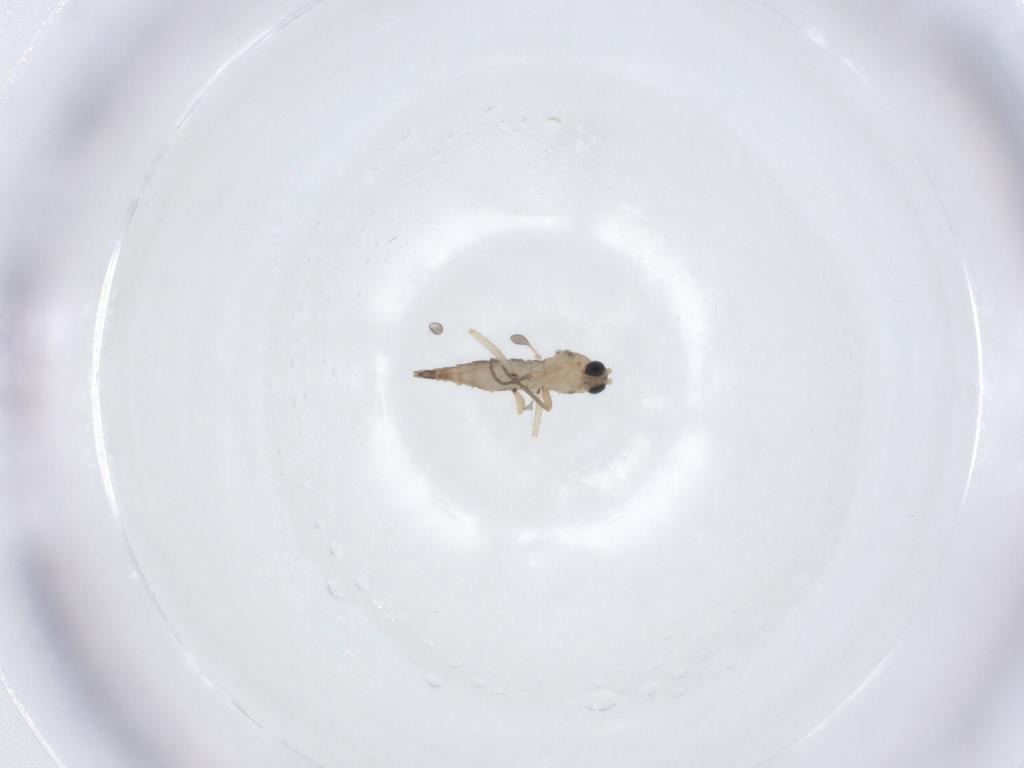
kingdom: Animalia
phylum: Arthropoda
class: Insecta
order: Diptera
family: Sciaridae
